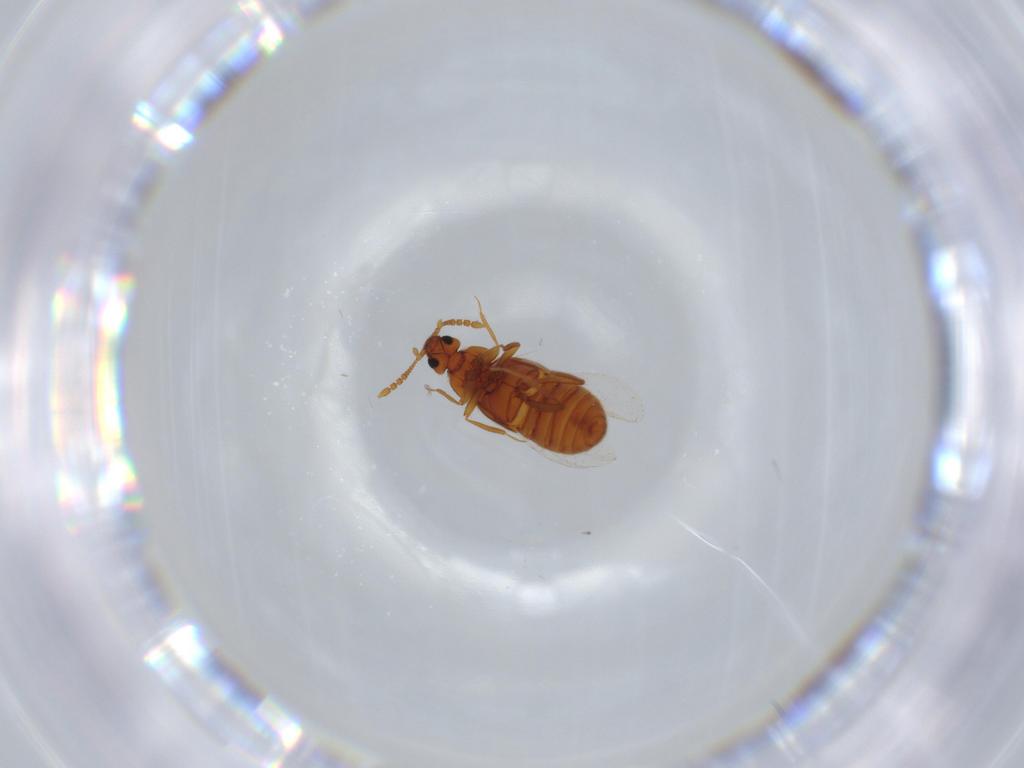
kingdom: Animalia
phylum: Arthropoda
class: Insecta
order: Coleoptera
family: Staphylinidae
